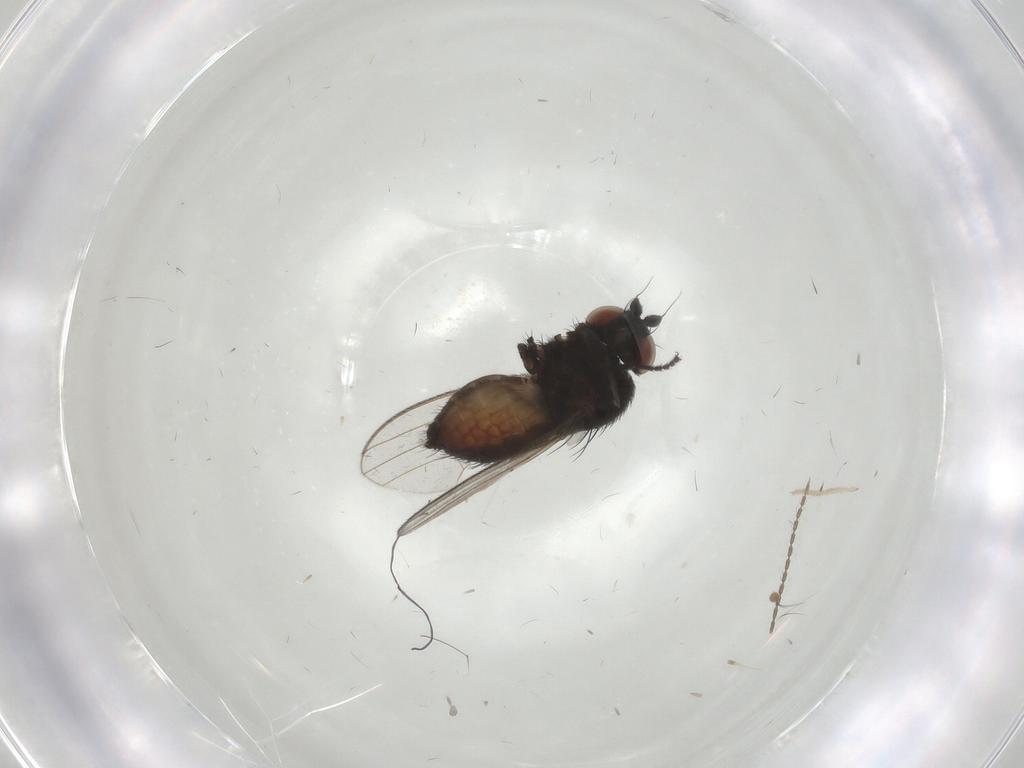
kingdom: Animalia
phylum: Arthropoda
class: Insecta
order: Diptera
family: Milichiidae
